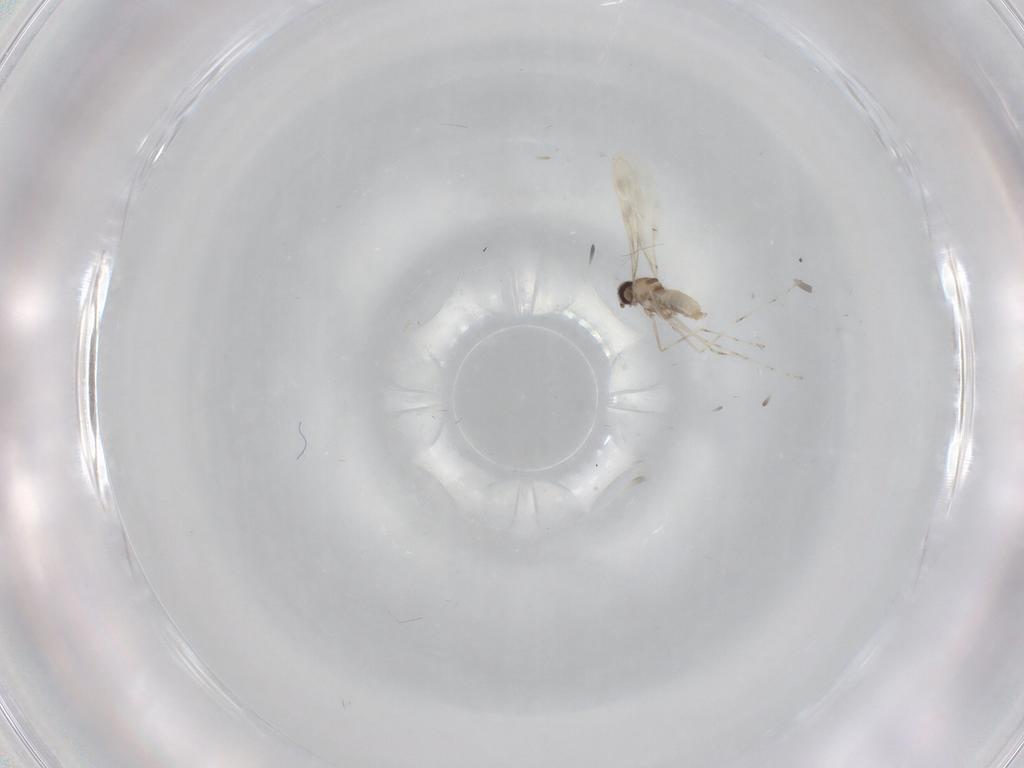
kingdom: Animalia
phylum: Arthropoda
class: Insecta
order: Diptera
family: Cecidomyiidae
